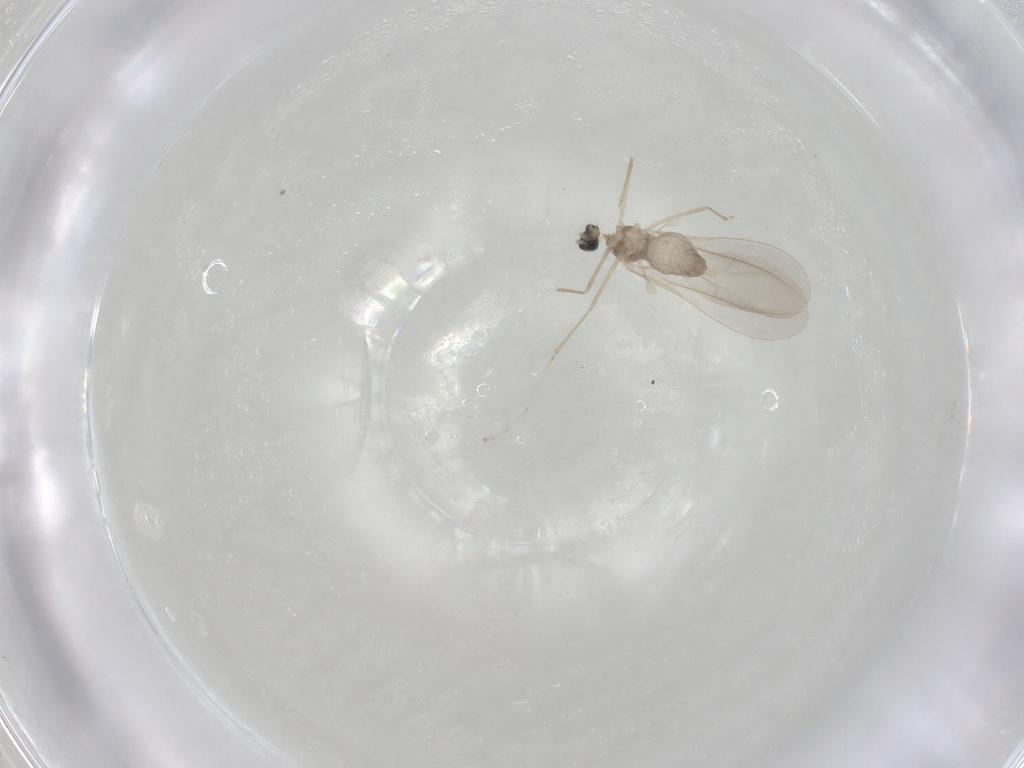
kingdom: Animalia
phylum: Arthropoda
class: Insecta
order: Diptera
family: Cecidomyiidae
